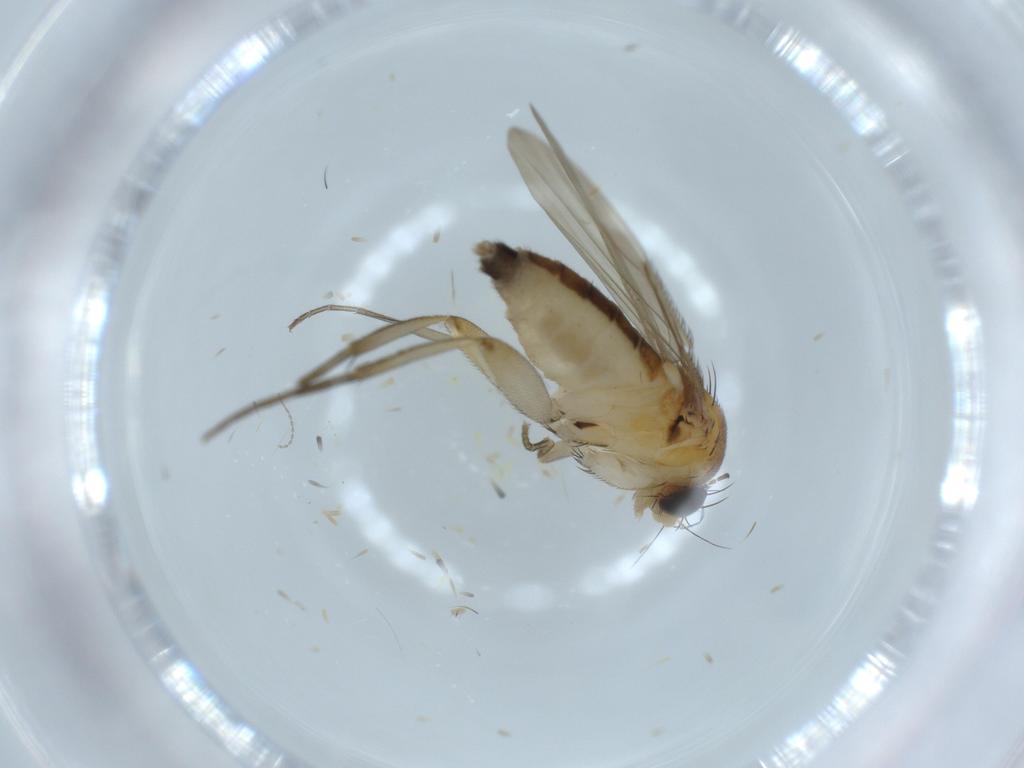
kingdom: Animalia
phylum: Arthropoda
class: Insecta
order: Diptera
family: Phoridae
